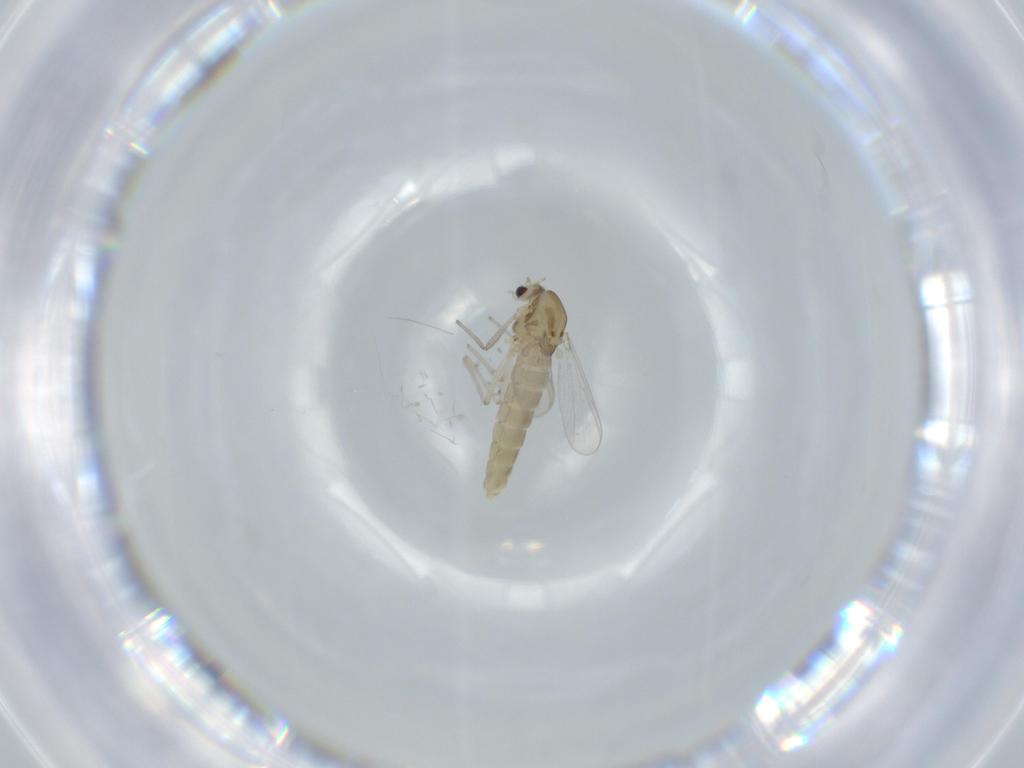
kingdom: Animalia
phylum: Arthropoda
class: Insecta
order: Diptera
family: Chironomidae
